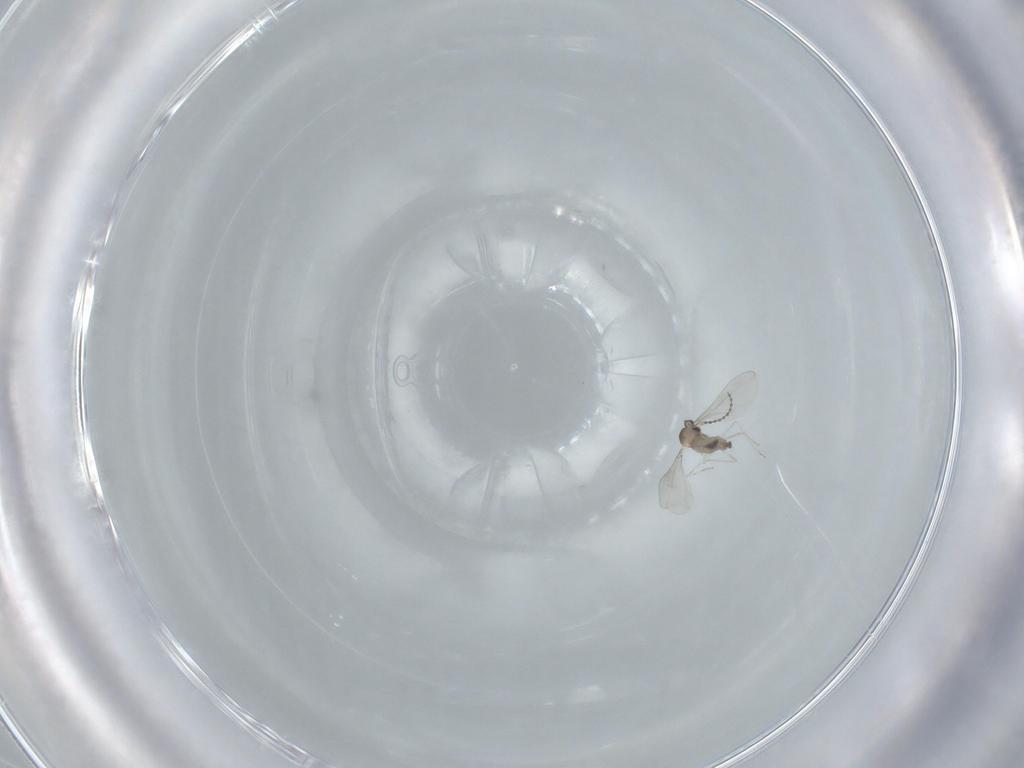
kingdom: Animalia
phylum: Arthropoda
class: Insecta
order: Diptera
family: Cecidomyiidae
